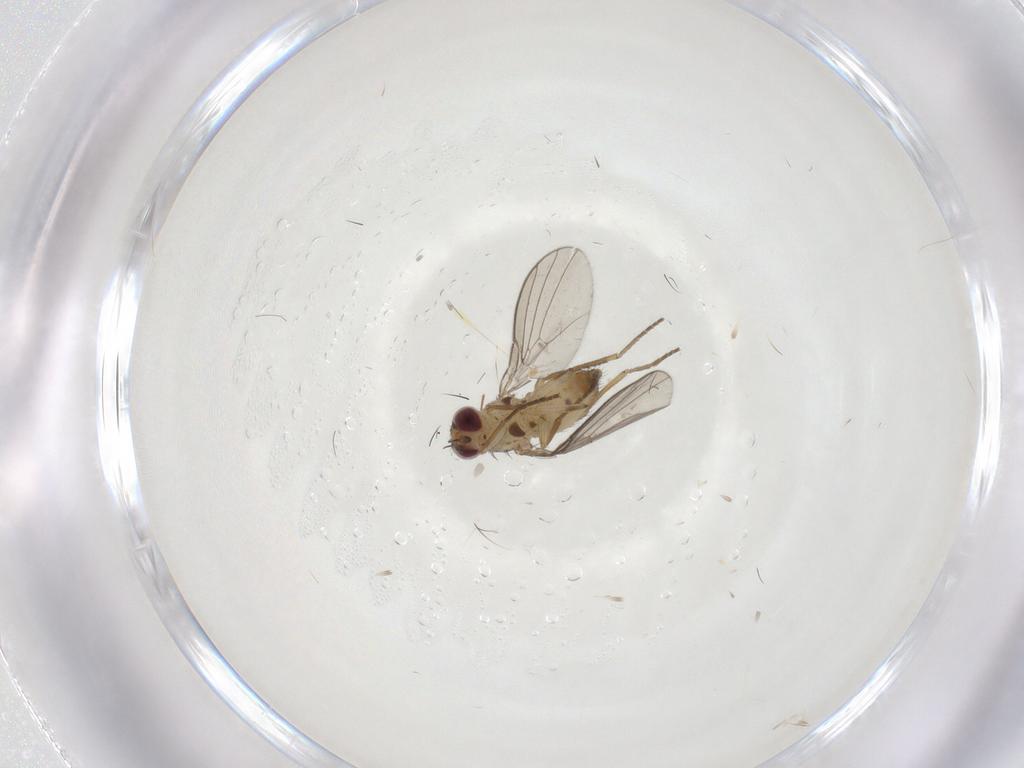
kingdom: Animalia
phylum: Arthropoda
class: Insecta
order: Diptera
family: Agromyzidae
